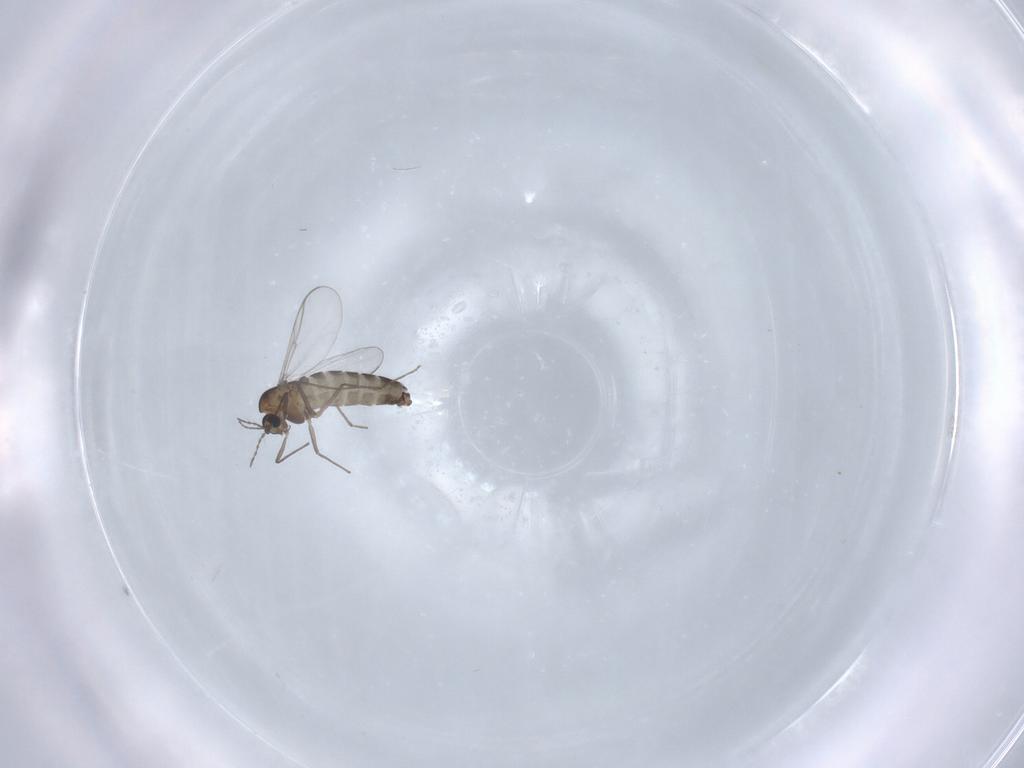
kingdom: Animalia
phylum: Arthropoda
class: Insecta
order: Diptera
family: Chironomidae
